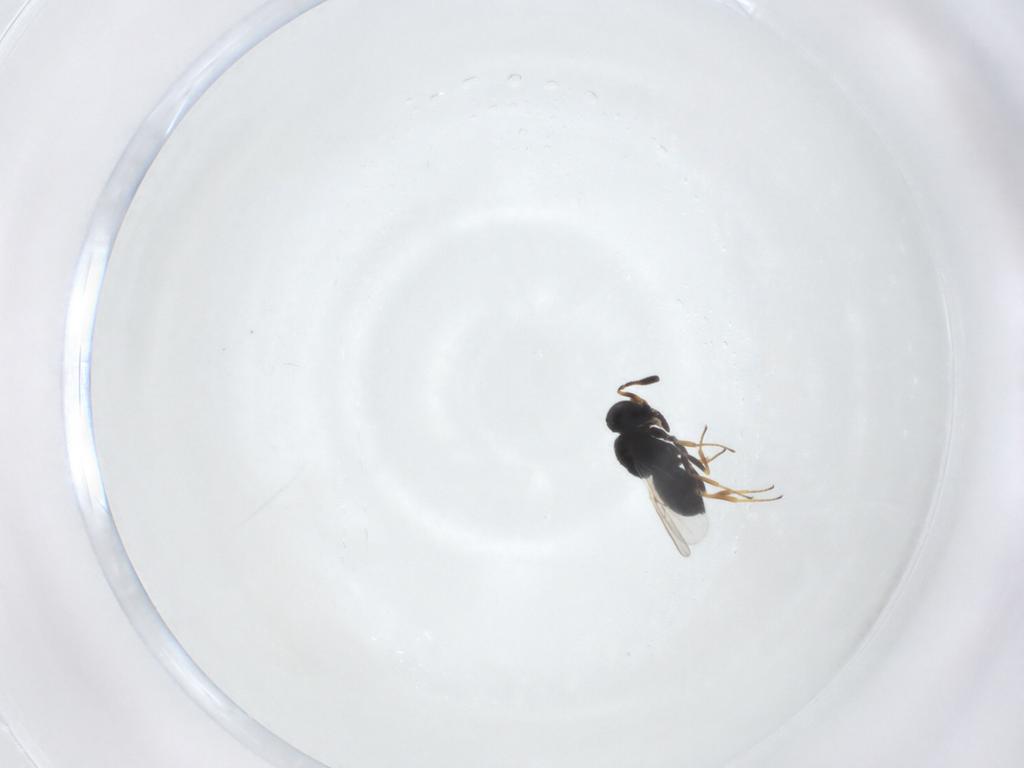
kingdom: Animalia
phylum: Arthropoda
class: Insecta
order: Hymenoptera
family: Scelionidae
